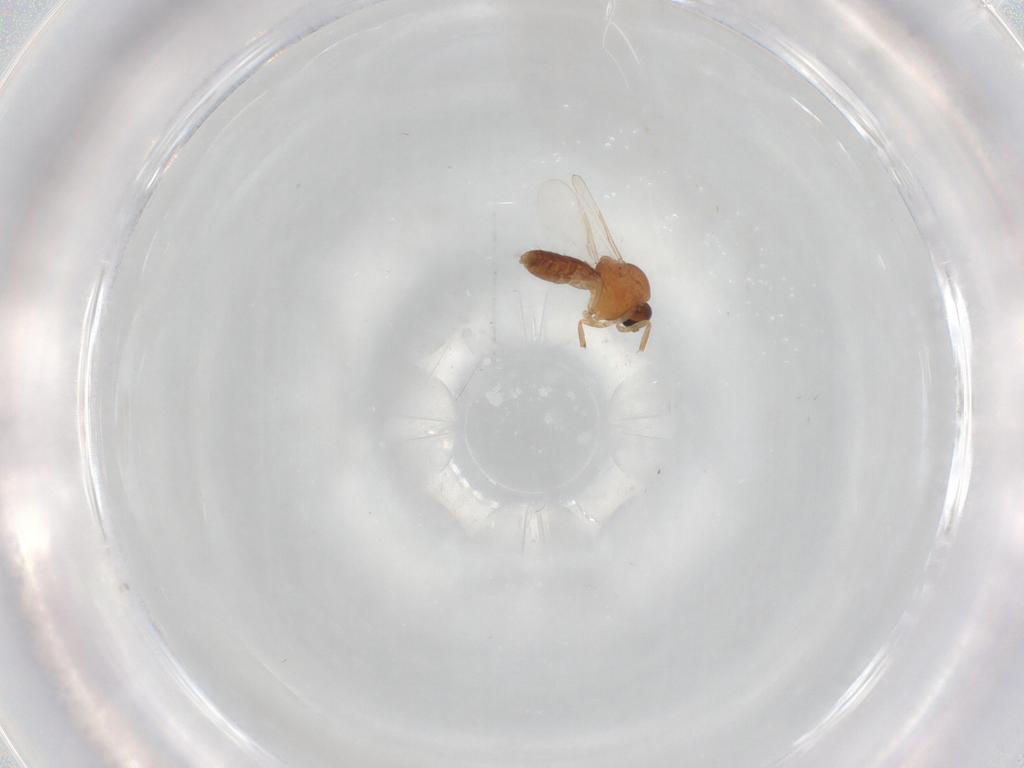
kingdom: Animalia
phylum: Arthropoda
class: Insecta
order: Diptera
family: Ceratopogonidae
